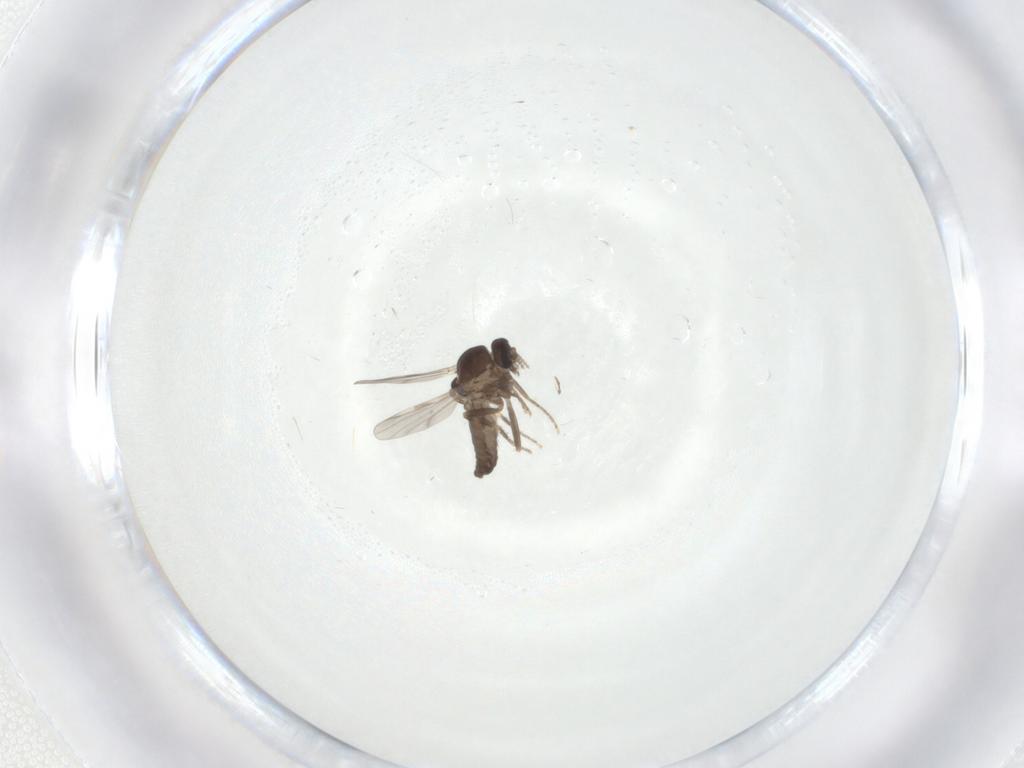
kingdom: Animalia
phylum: Arthropoda
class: Insecta
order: Diptera
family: Ceratopogonidae
